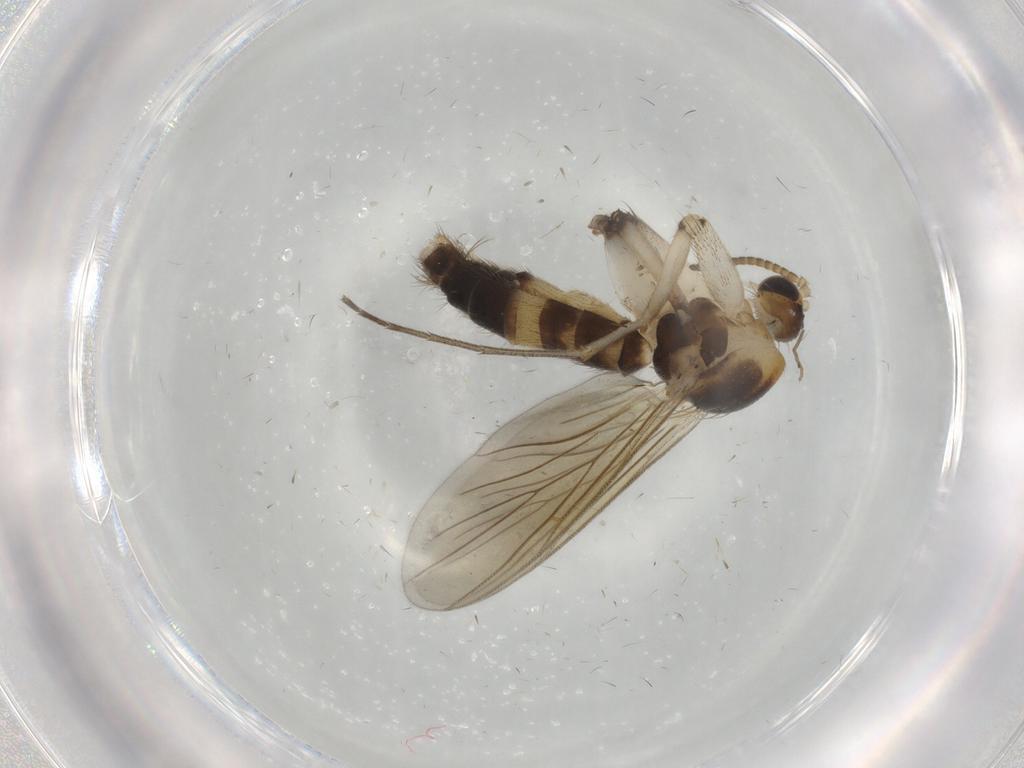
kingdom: Animalia
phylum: Arthropoda
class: Insecta
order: Diptera
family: Mycetophilidae
